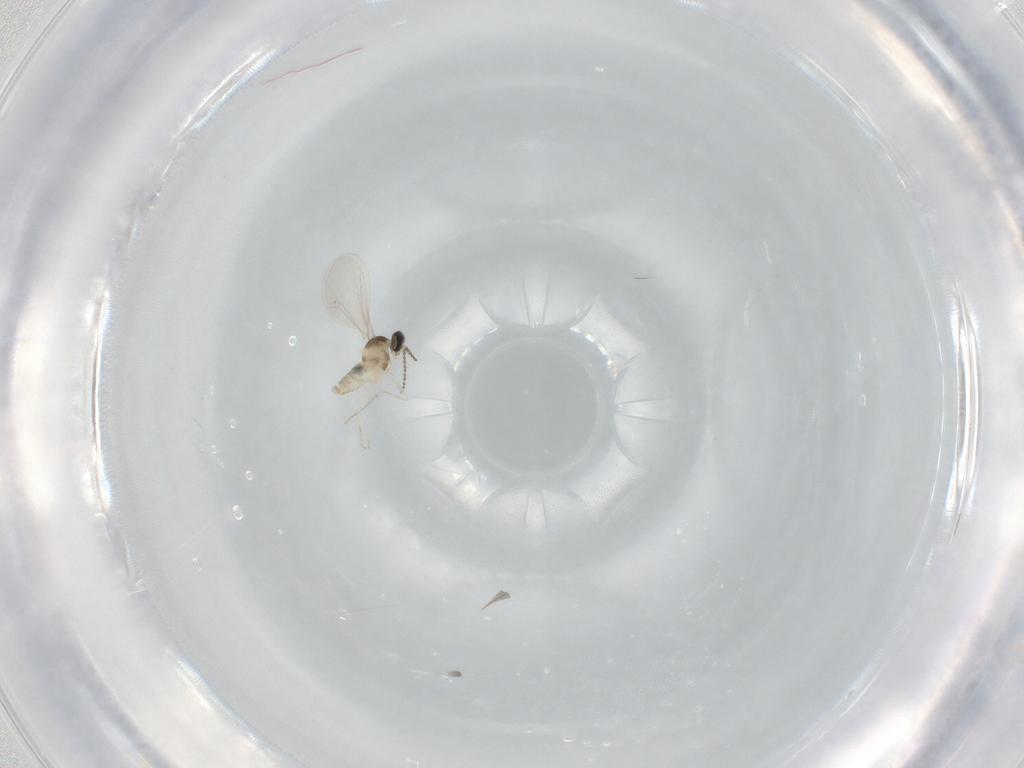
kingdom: Animalia
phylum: Arthropoda
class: Insecta
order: Diptera
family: Cecidomyiidae
